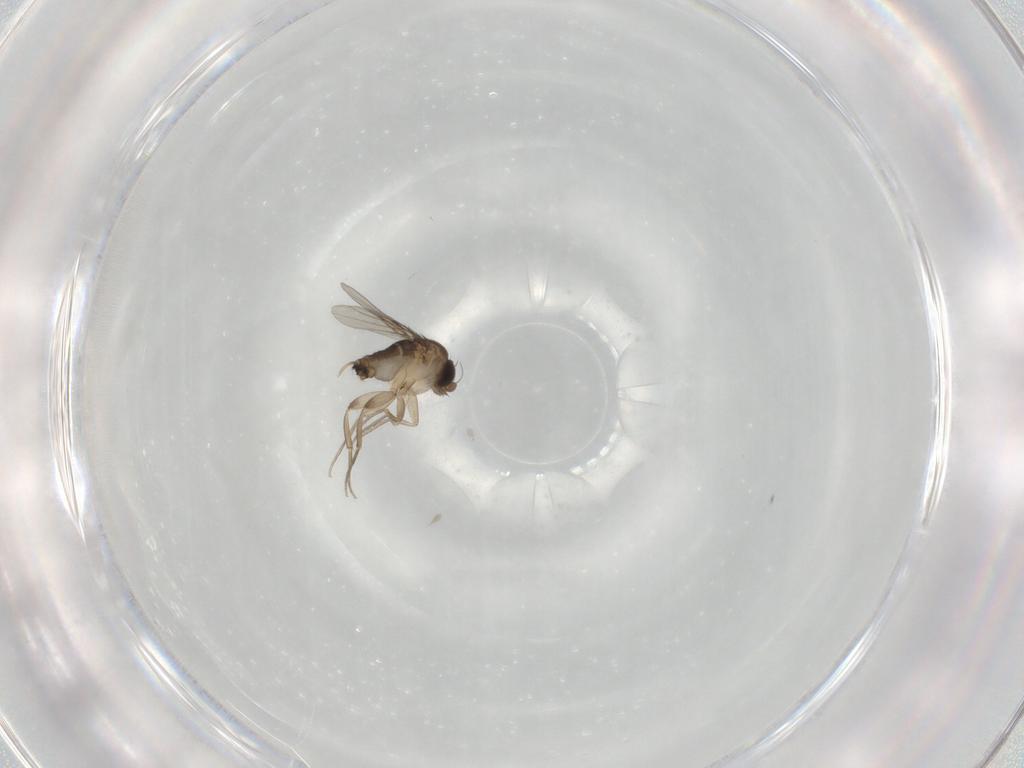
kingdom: Animalia
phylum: Arthropoda
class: Insecta
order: Diptera
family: Phoridae
